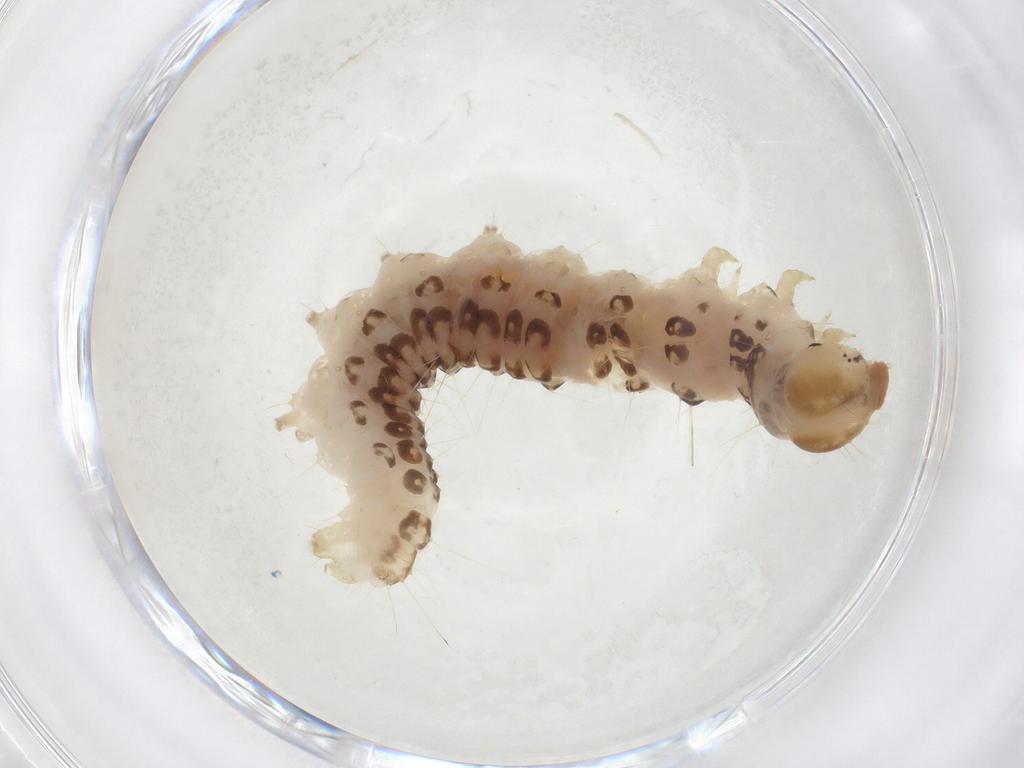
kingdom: Animalia
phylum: Arthropoda
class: Insecta
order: Lepidoptera
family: Crambidae
